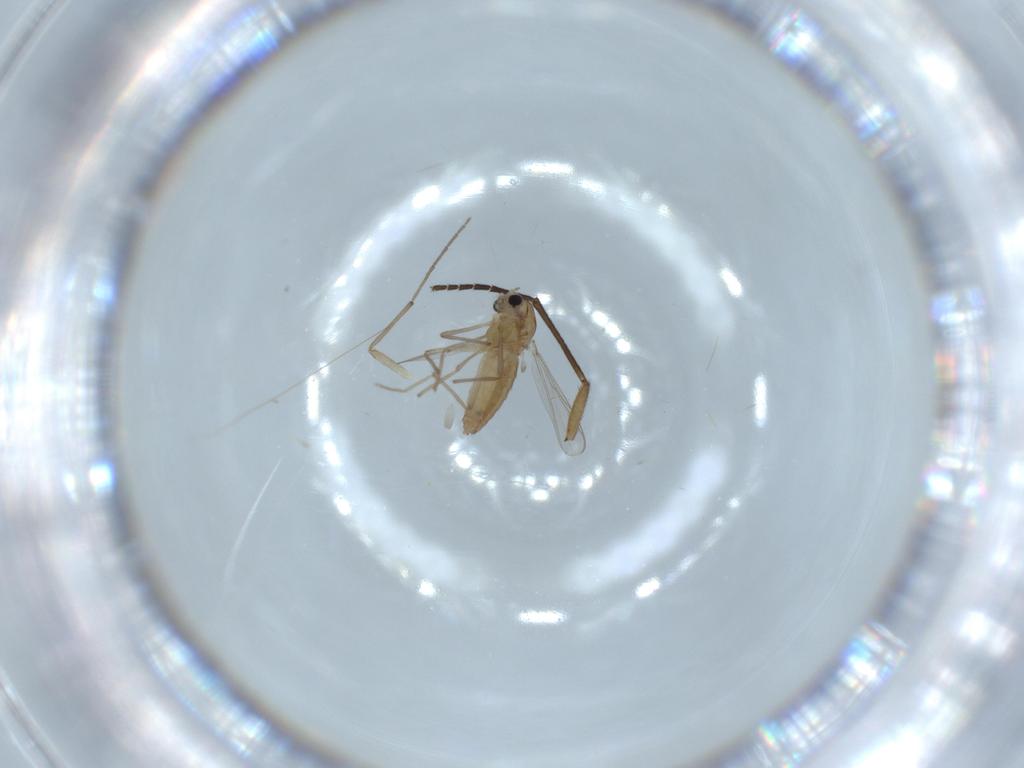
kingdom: Animalia
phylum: Arthropoda
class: Insecta
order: Diptera
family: Chironomidae
